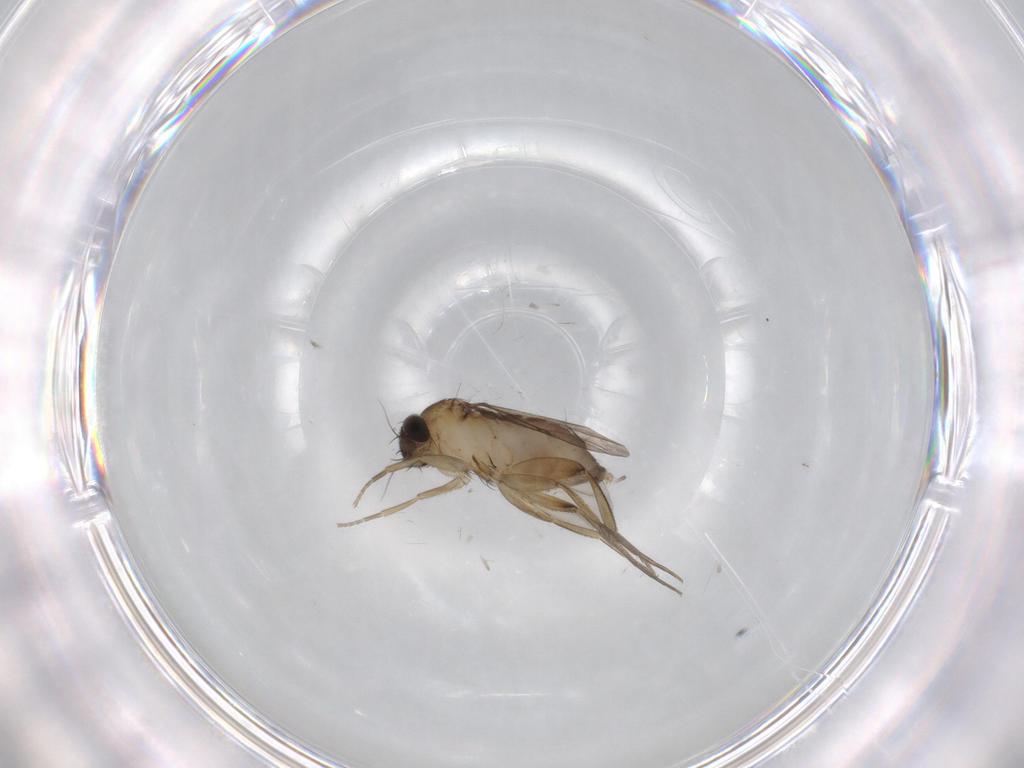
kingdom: Animalia
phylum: Arthropoda
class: Insecta
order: Diptera
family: Phoridae
